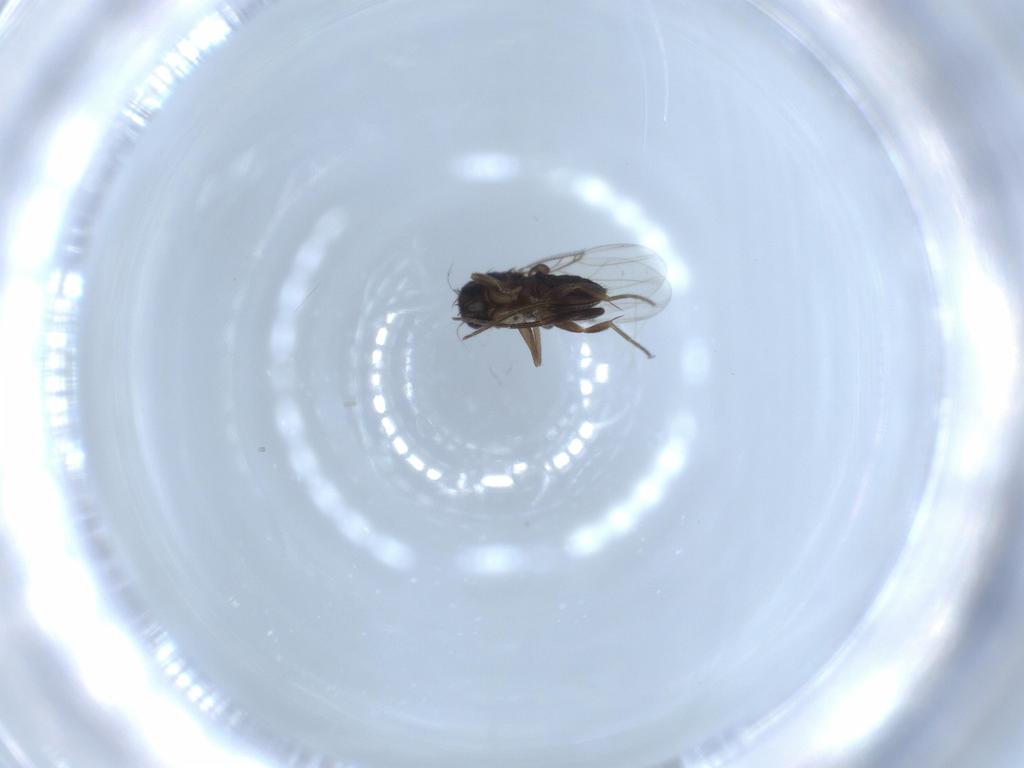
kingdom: Animalia
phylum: Arthropoda
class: Insecta
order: Diptera
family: Phoridae
